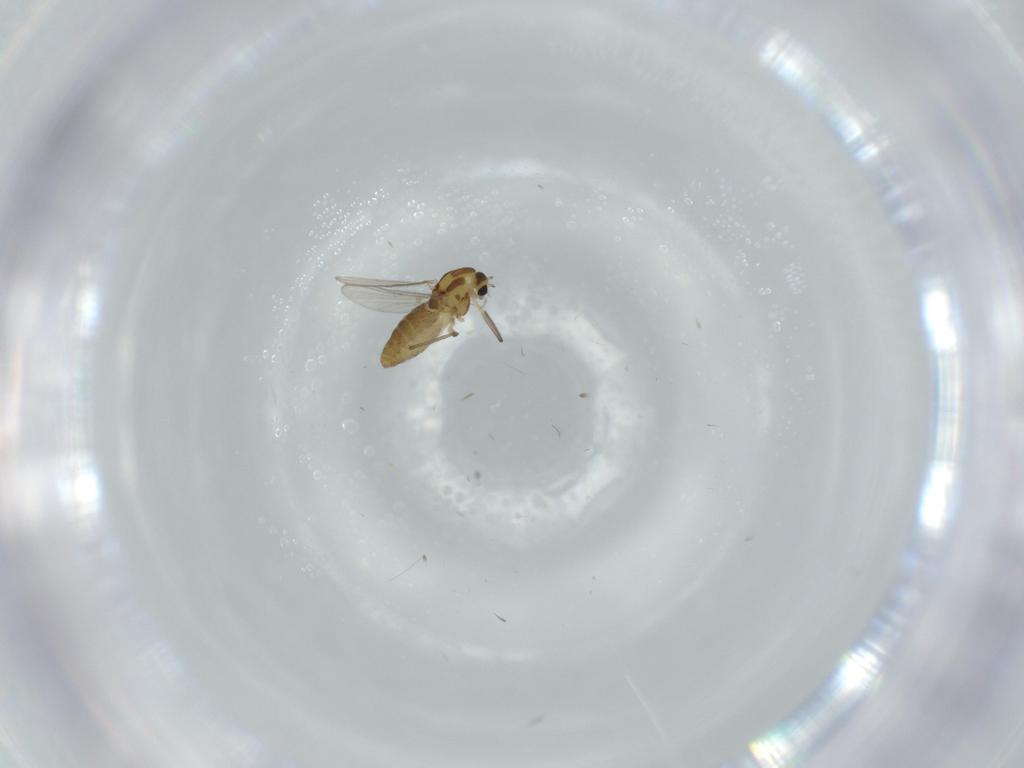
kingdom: Animalia
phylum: Arthropoda
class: Insecta
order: Diptera
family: Chironomidae
